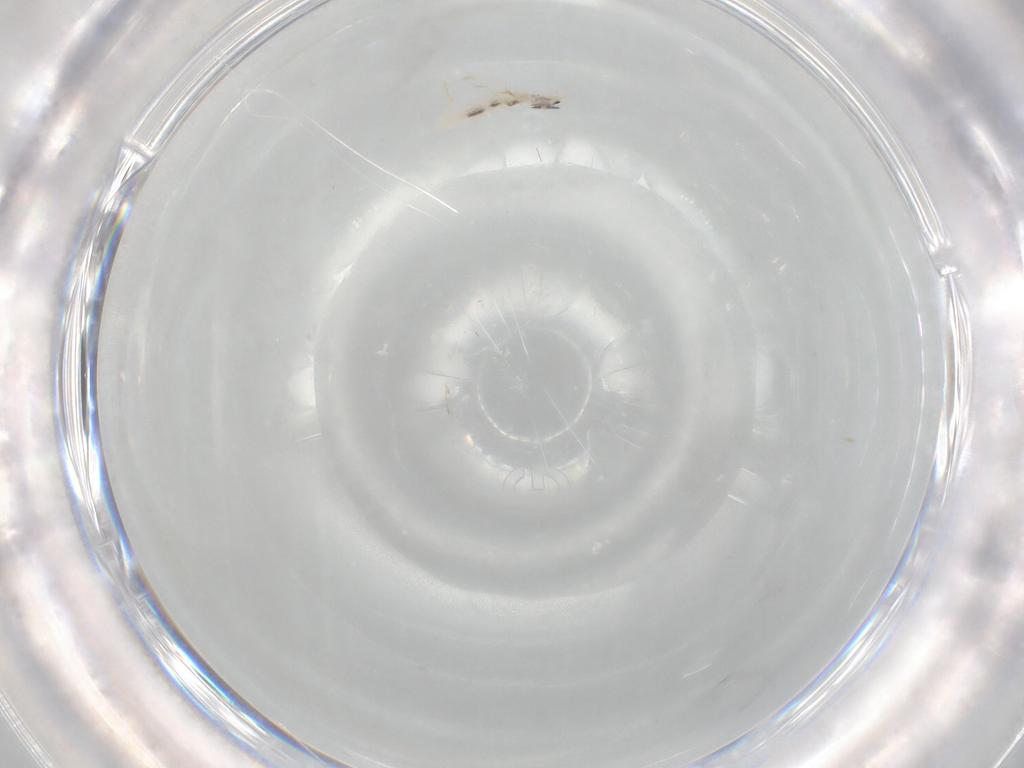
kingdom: Animalia
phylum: Arthropoda
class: Collembola
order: Entomobryomorpha
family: Entomobryidae
